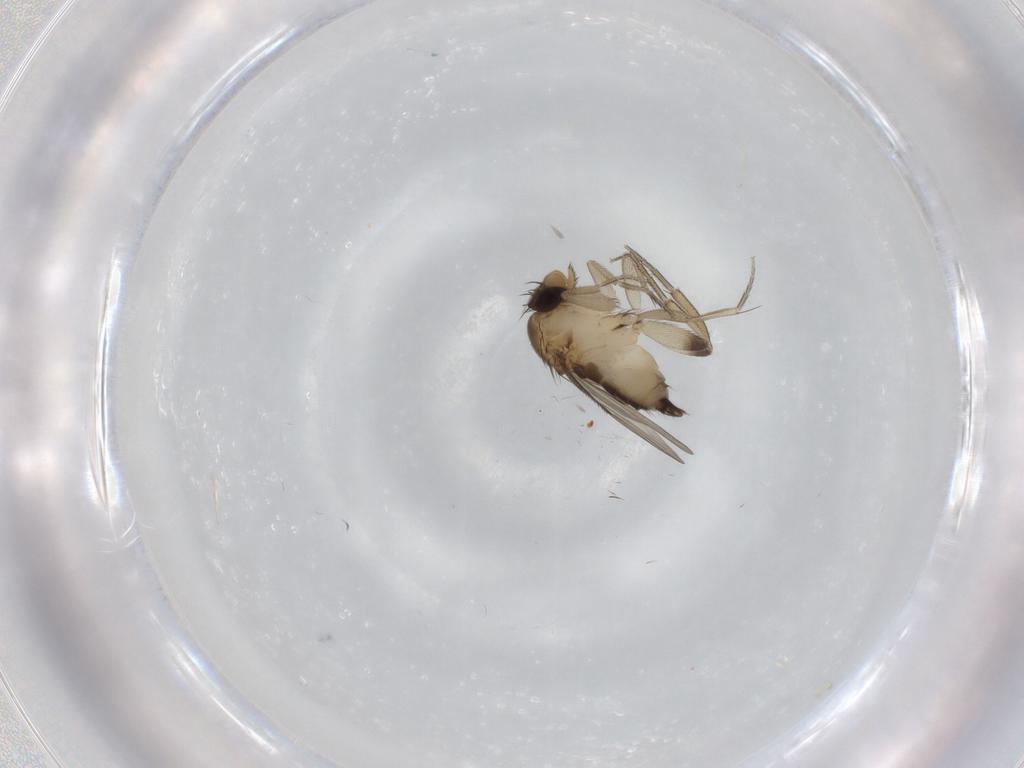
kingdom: Animalia
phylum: Arthropoda
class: Insecta
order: Diptera
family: Phoridae
